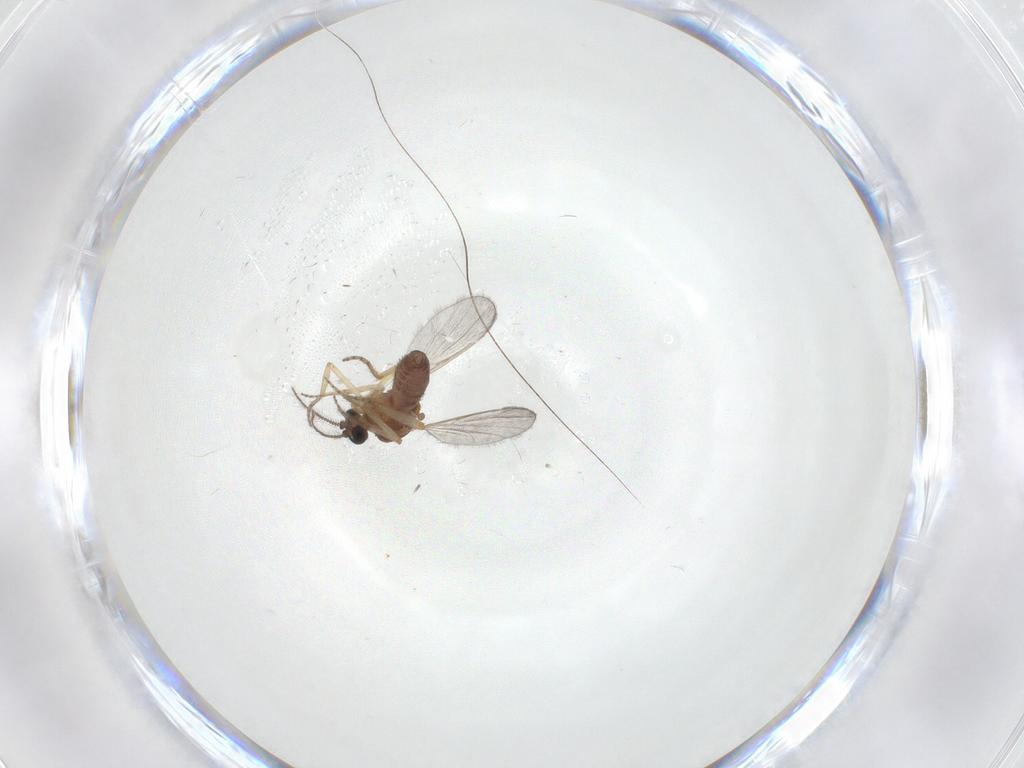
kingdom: Animalia
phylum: Arthropoda
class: Insecta
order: Diptera
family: Ceratopogonidae
